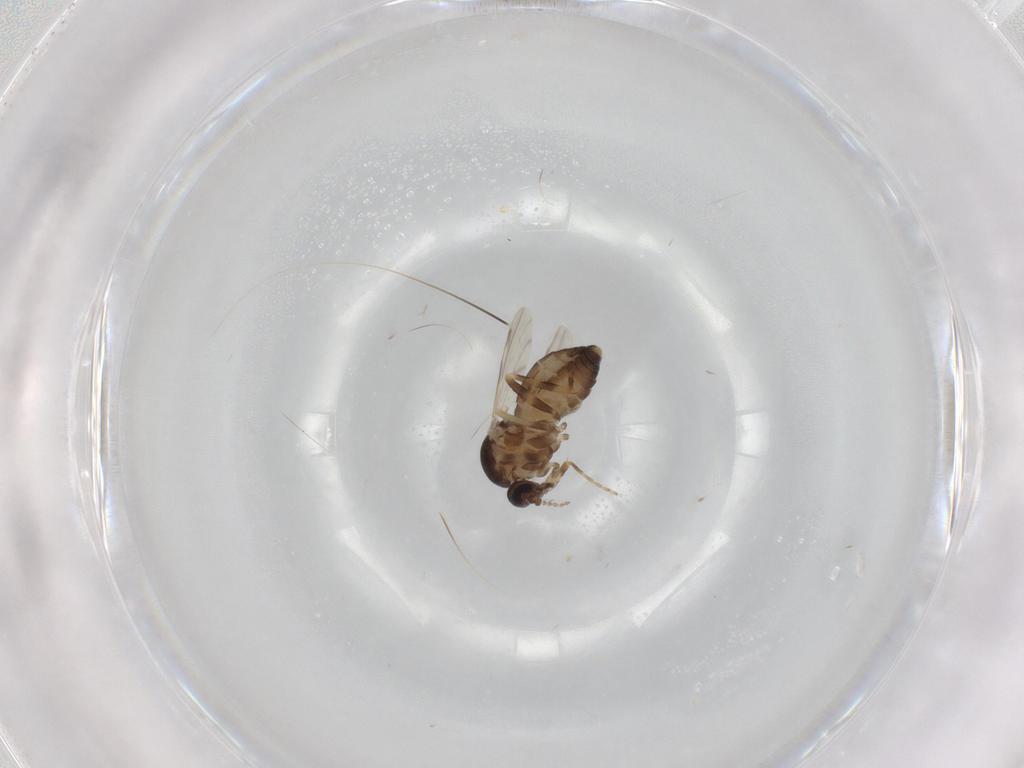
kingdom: Animalia
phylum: Arthropoda
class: Insecta
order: Diptera
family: Ceratopogonidae
